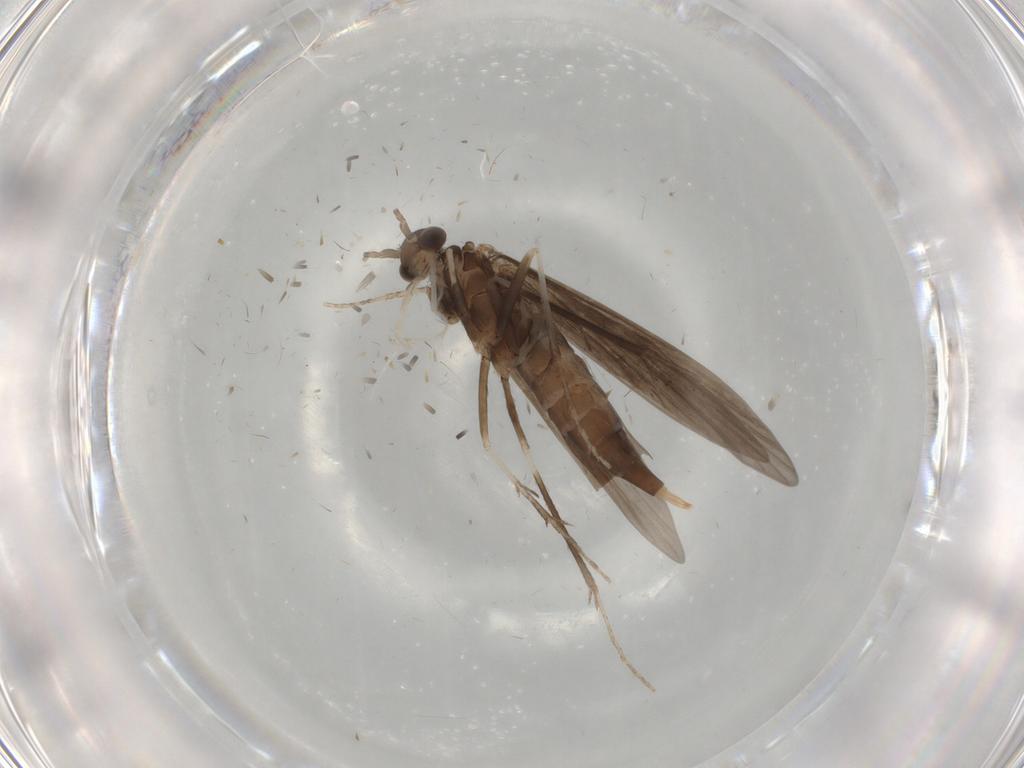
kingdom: Animalia
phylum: Arthropoda
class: Insecta
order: Trichoptera
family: Xiphocentronidae
